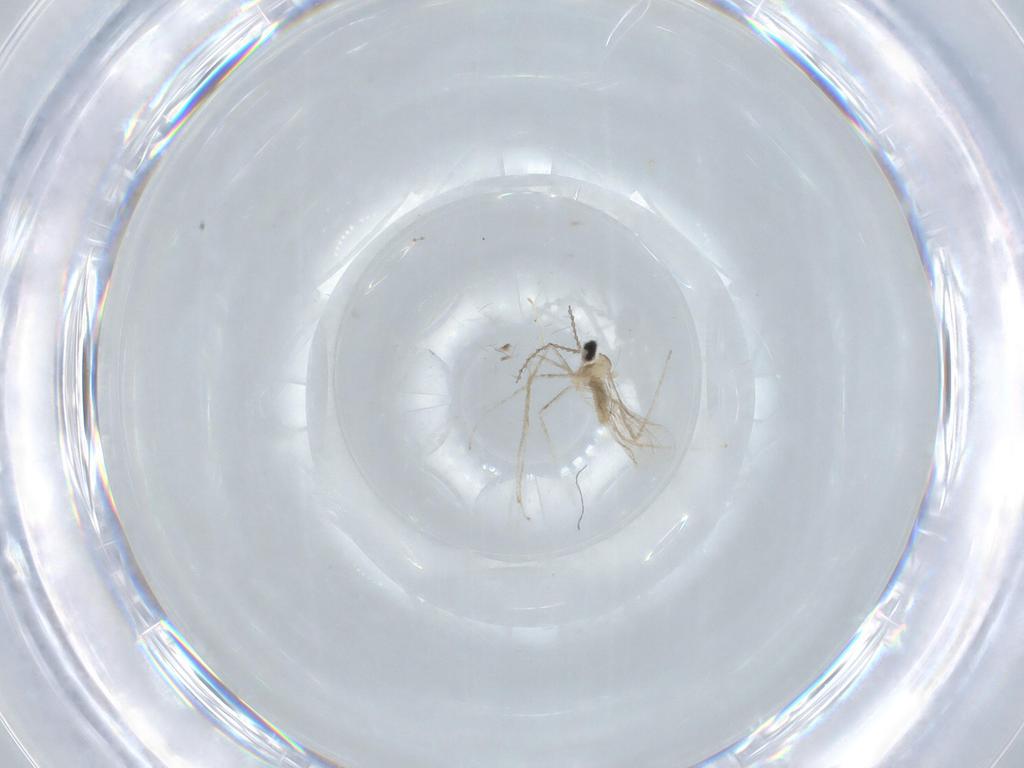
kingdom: Animalia
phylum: Arthropoda
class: Insecta
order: Diptera
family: Cecidomyiidae
